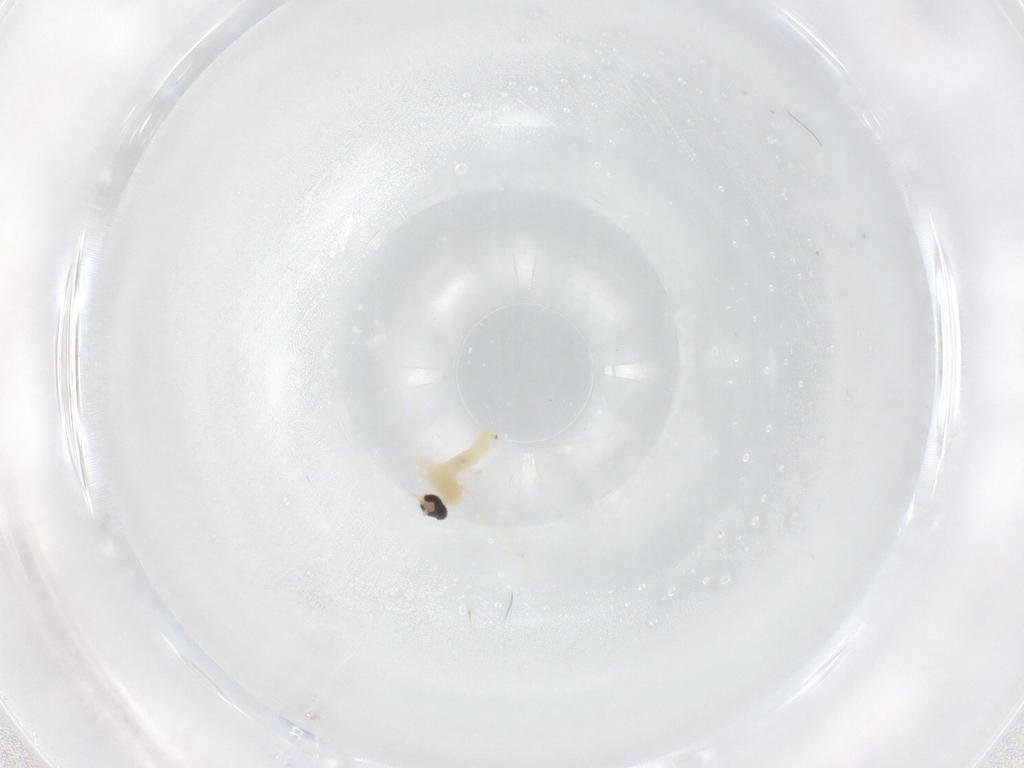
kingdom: Animalia
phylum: Arthropoda
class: Insecta
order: Diptera
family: Cecidomyiidae
